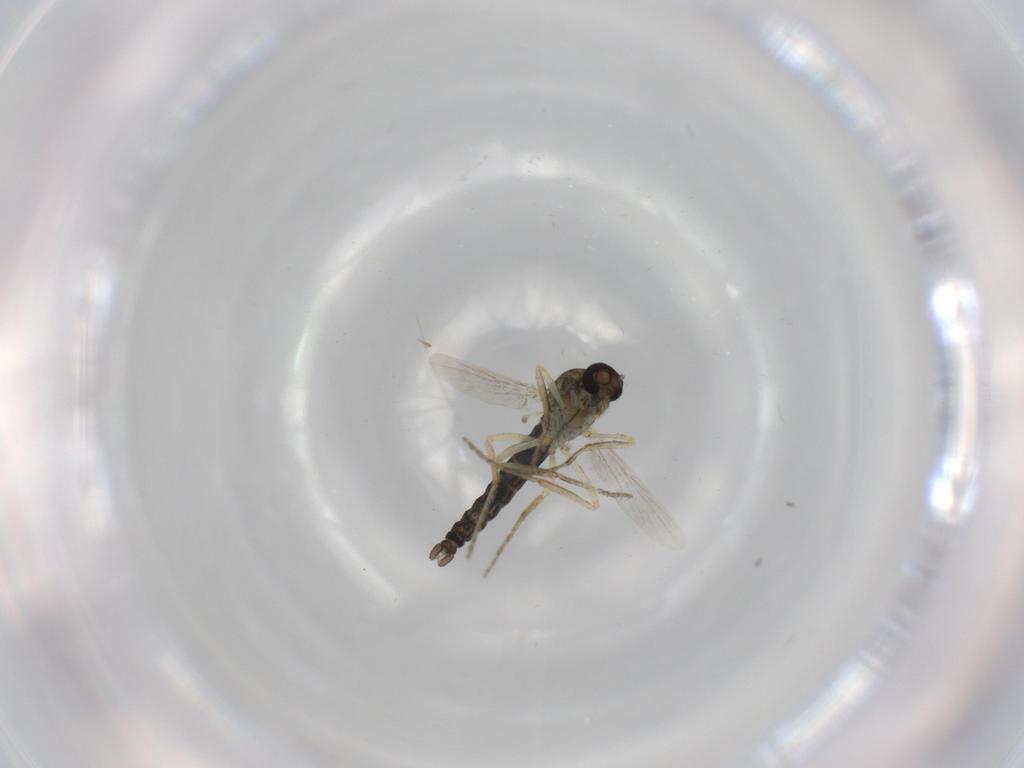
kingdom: Animalia
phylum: Arthropoda
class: Insecta
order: Diptera
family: Ceratopogonidae
